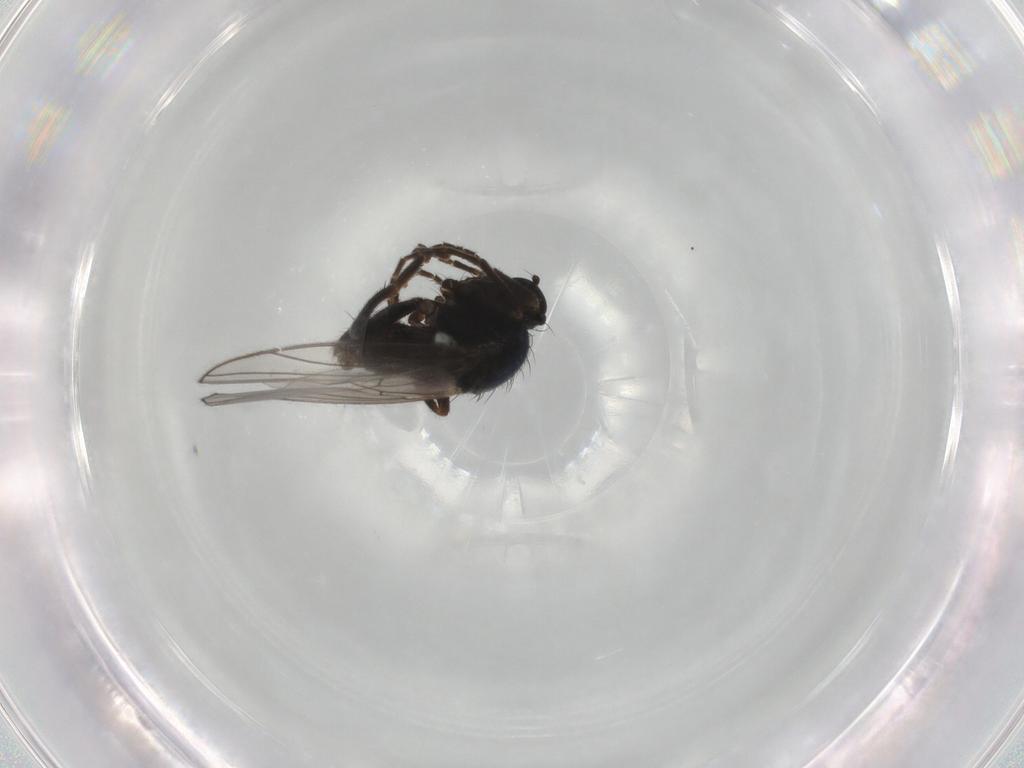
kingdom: Animalia
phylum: Arthropoda
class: Insecta
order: Diptera
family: Hybotidae
